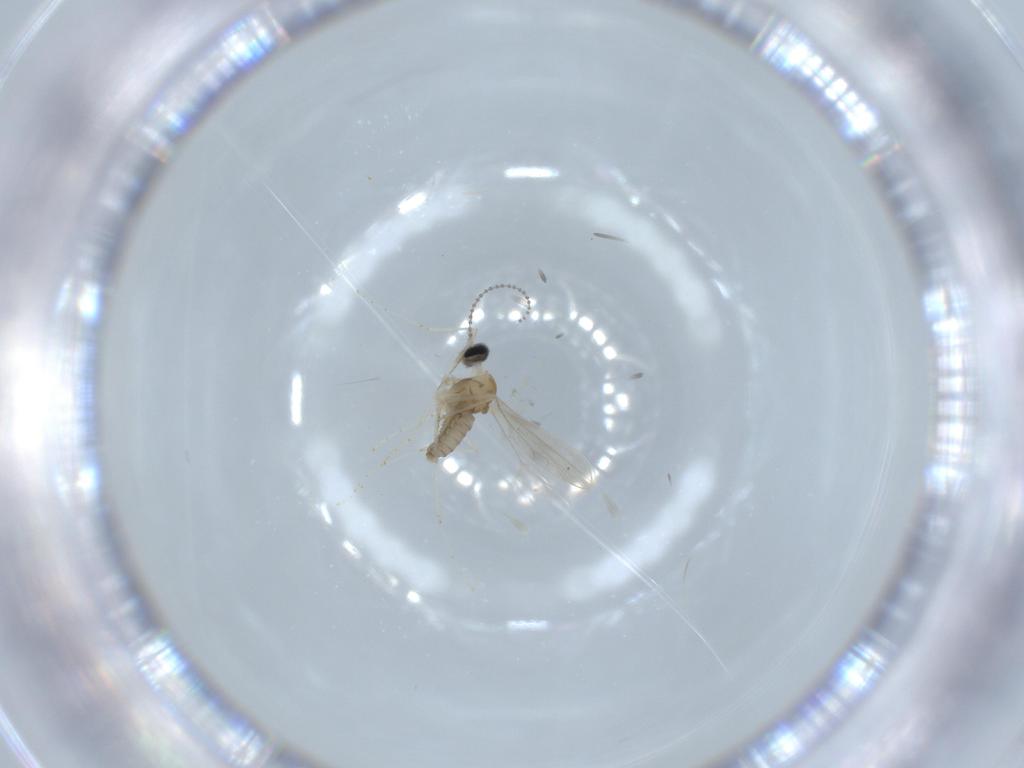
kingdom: Animalia
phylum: Arthropoda
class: Insecta
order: Diptera
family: Cecidomyiidae
